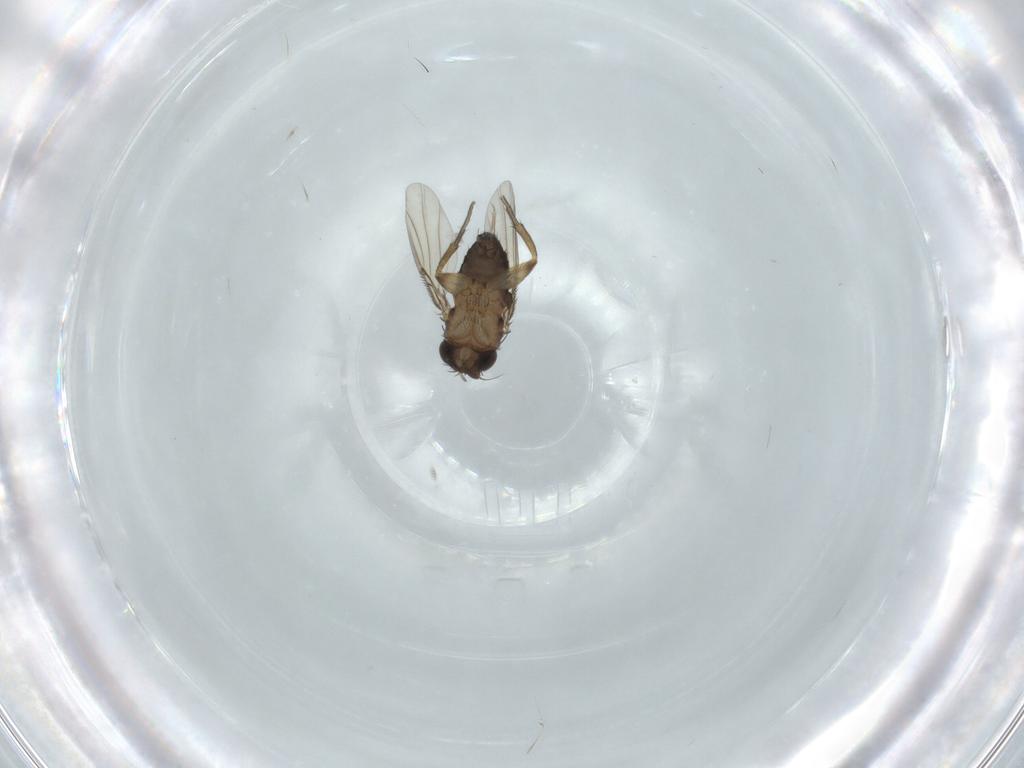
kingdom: Animalia
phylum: Arthropoda
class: Insecta
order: Diptera
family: Phoridae
